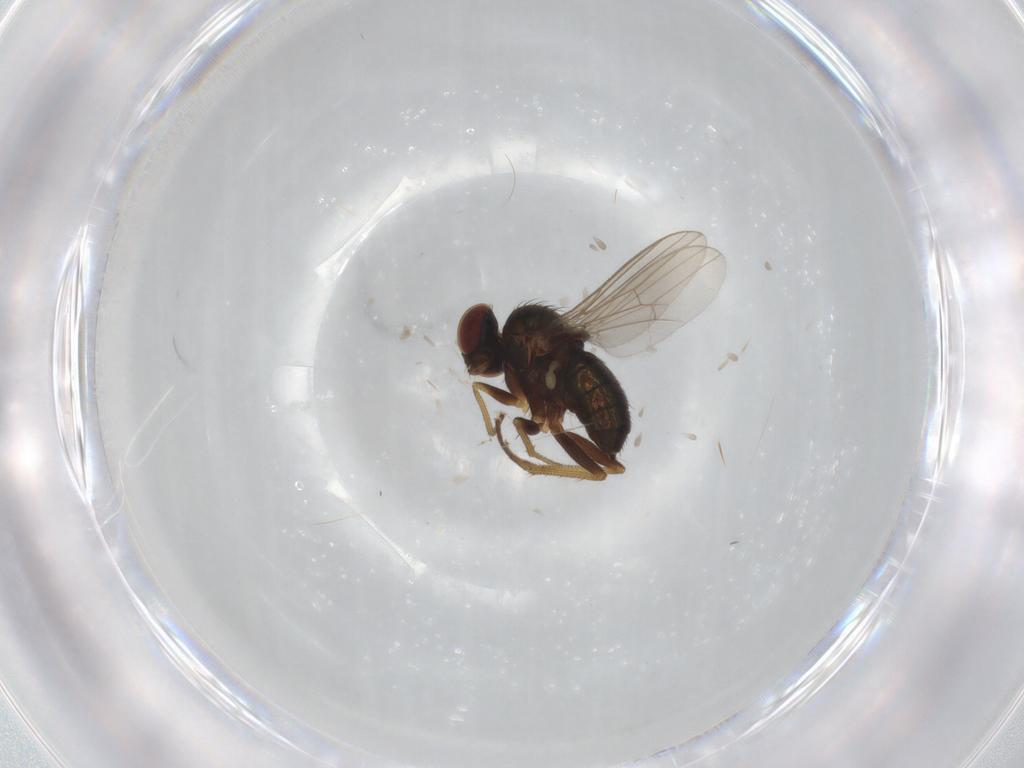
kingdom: Animalia
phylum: Arthropoda
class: Insecta
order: Diptera
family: Dolichopodidae
